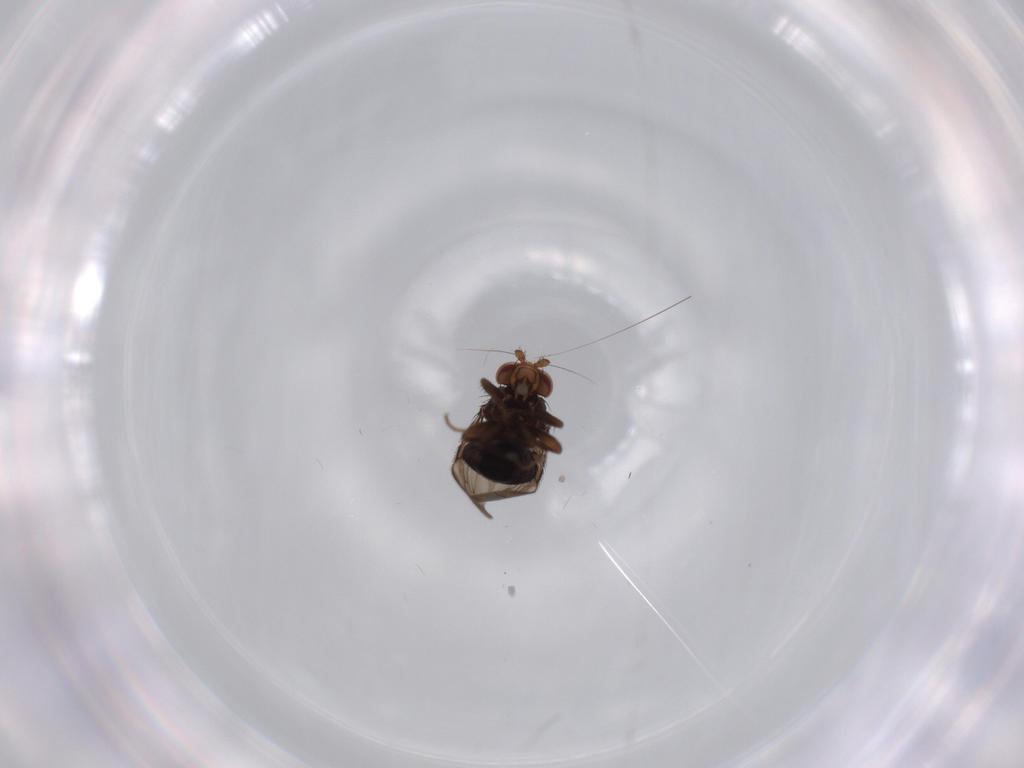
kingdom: Animalia
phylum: Arthropoda
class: Insecta
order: Diptera
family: Sphaeroceridae
